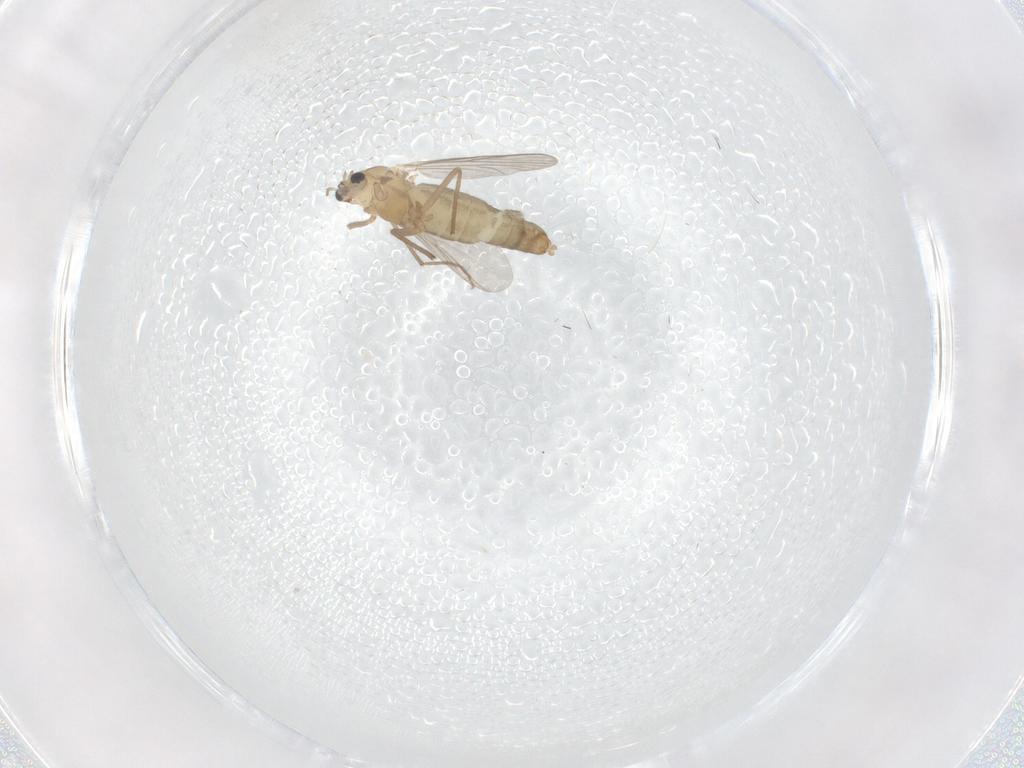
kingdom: Animalia
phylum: Arthropoda
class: Insecta
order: Diptera
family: Chironomidae
